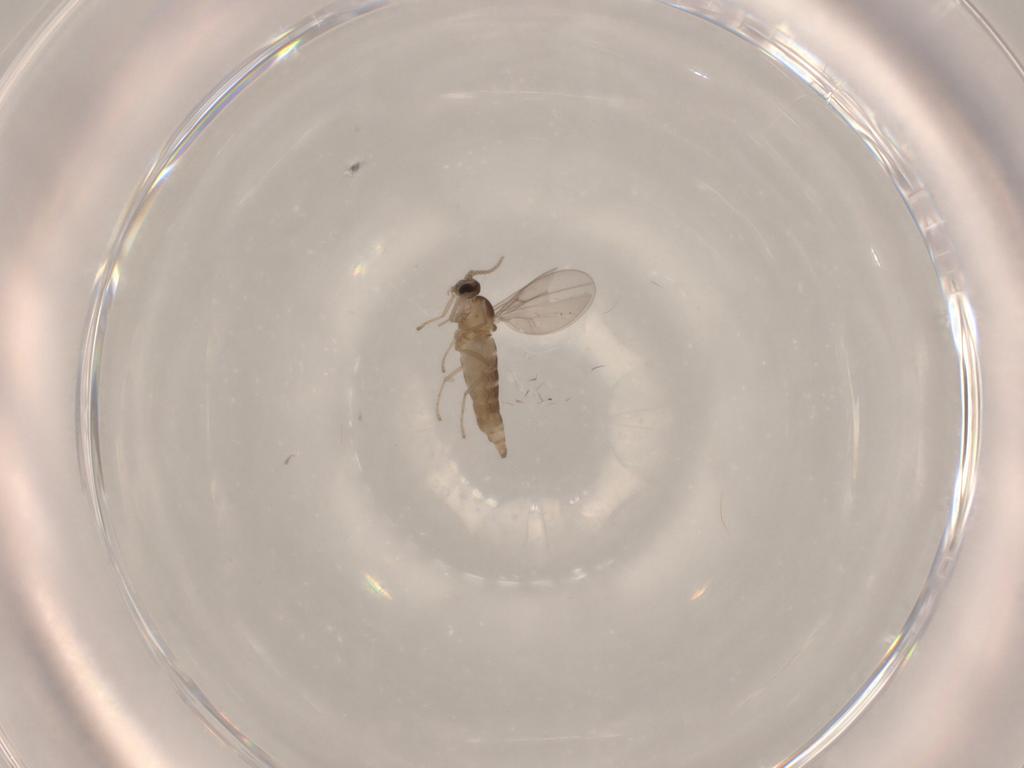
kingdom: Animalia
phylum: Arthropoda
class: Insecta
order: Diptera
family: Cecidomyiidae
